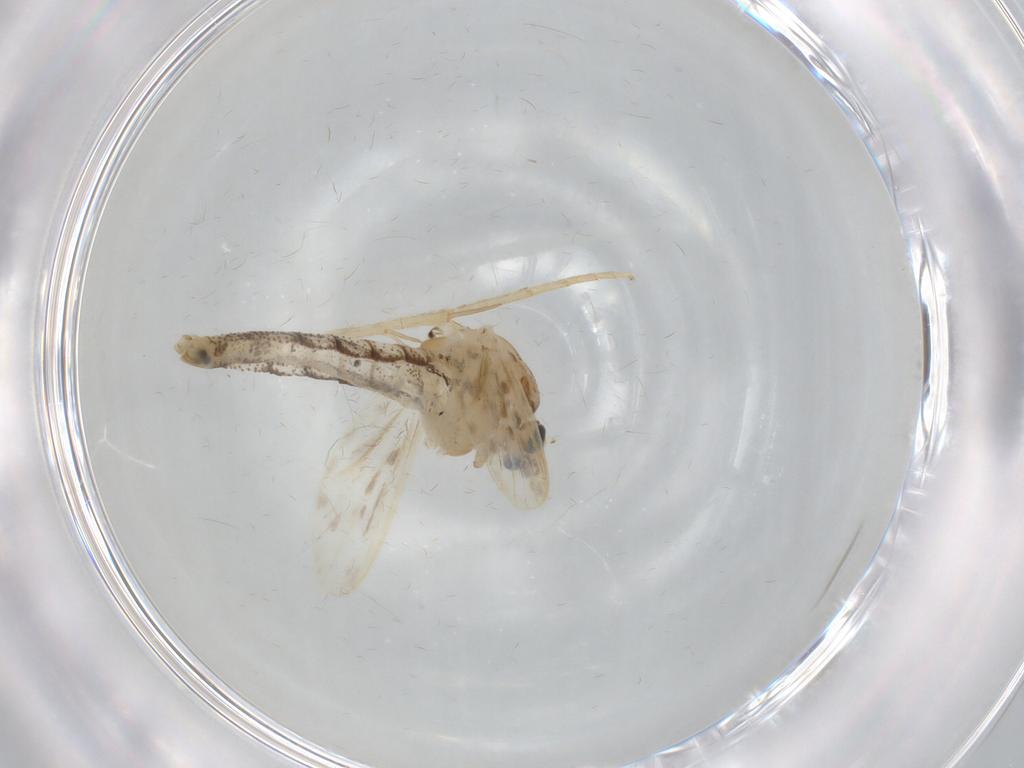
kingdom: Animalia
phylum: Arthropoda
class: Insecta
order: Diptera
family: Chaoboridae
